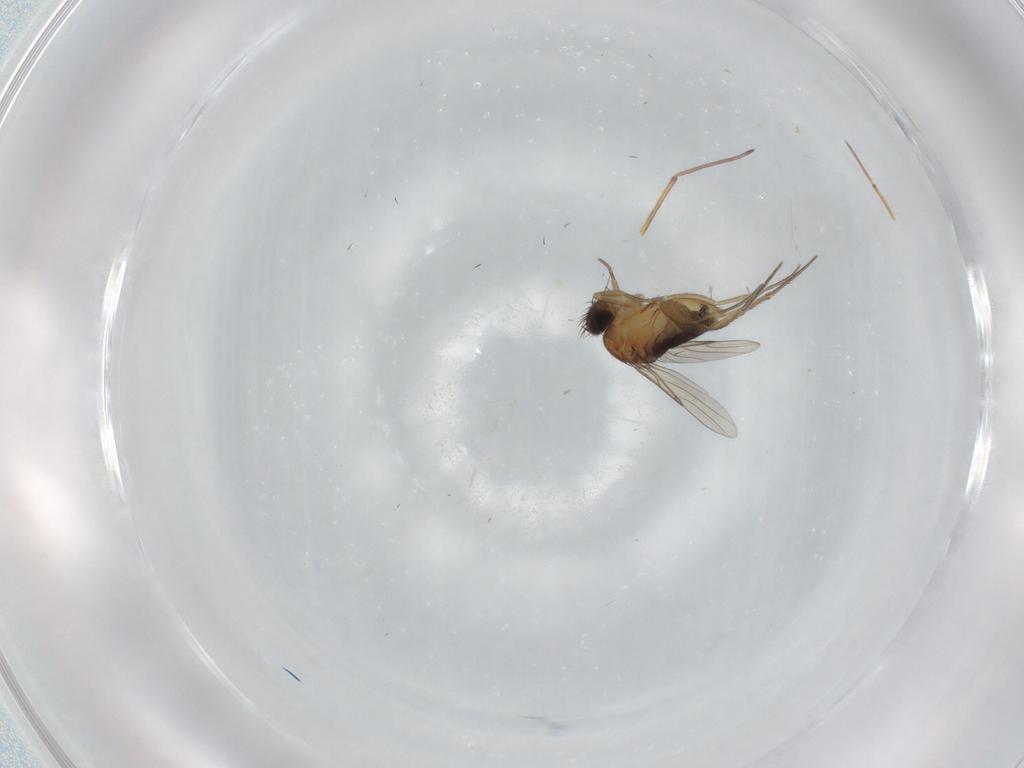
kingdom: Animalia
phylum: Arthropoda
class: Insecta
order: Diptera
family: Phoridae
